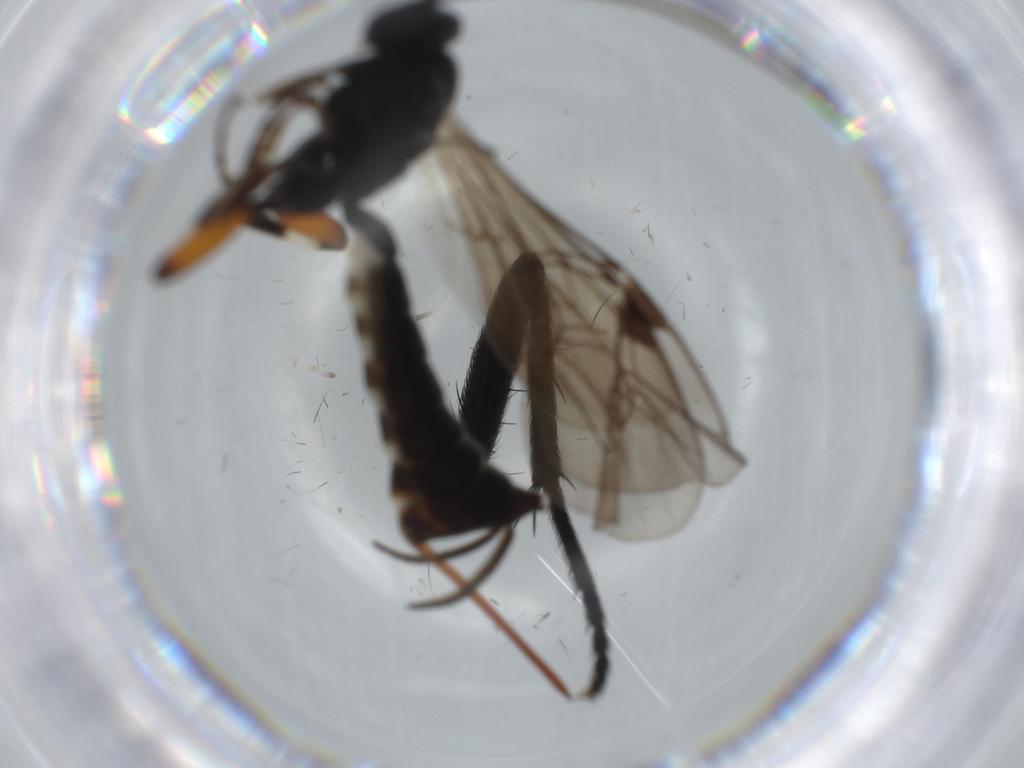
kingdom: Animalia
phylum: Arthropoda
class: Insecta
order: Hymenoptera
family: Ichneumonidae
